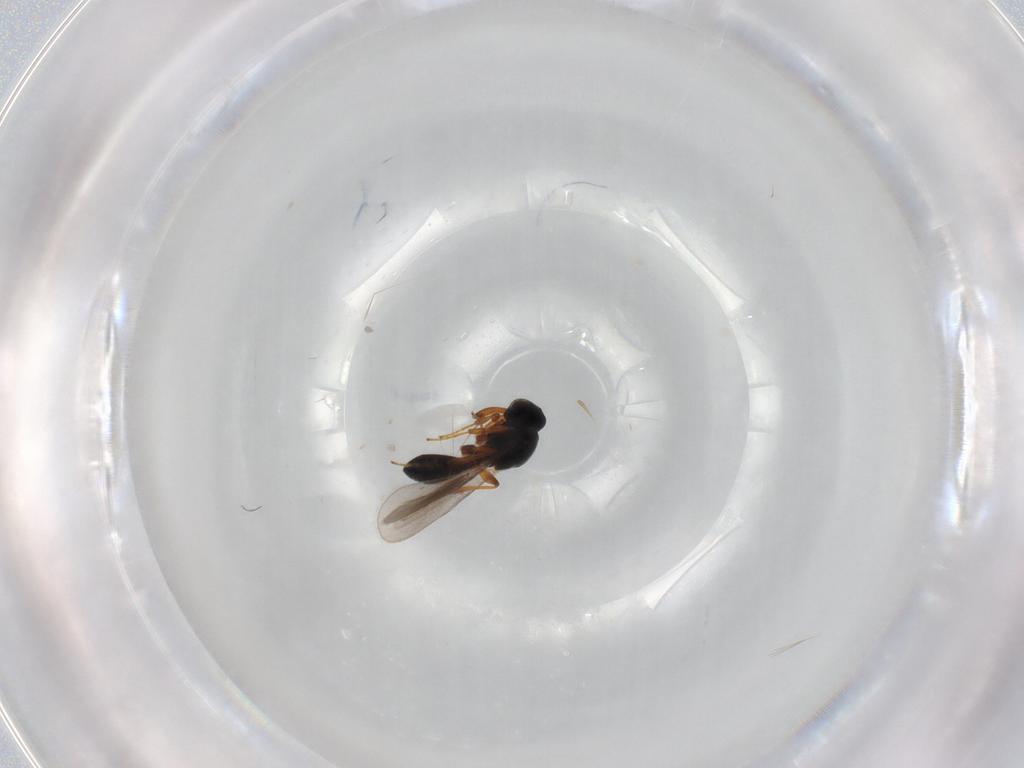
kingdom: Animalia
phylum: Arthropoda
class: Insecta
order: Hymenoptera
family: Platygastridae
